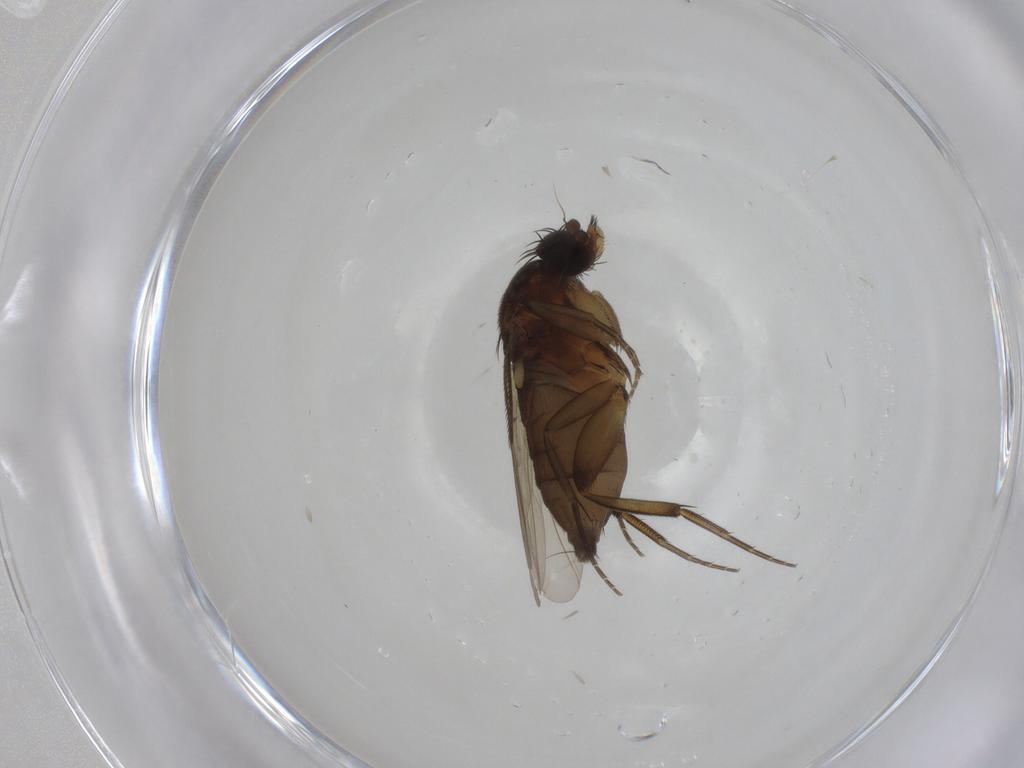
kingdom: Animalia
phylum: Arthropoda
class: Insecta
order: Diptera
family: Phoridae
